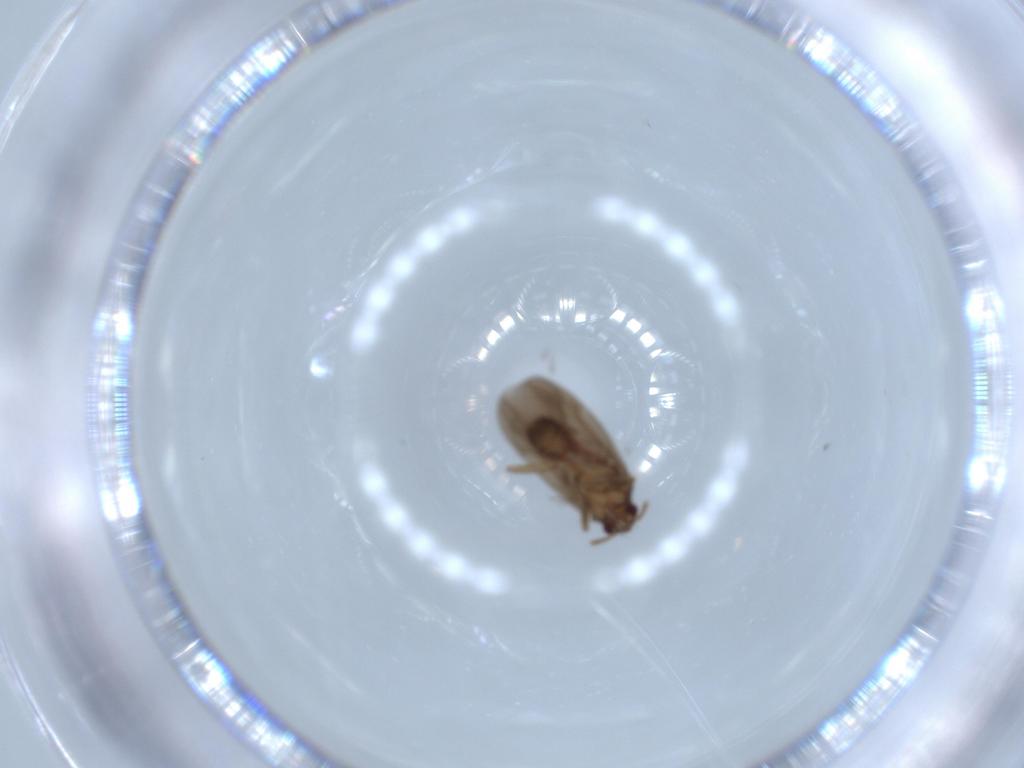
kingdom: Animalia
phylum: Arthropoda
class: Insecta
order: Hemiptera
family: Ceratocombidae
